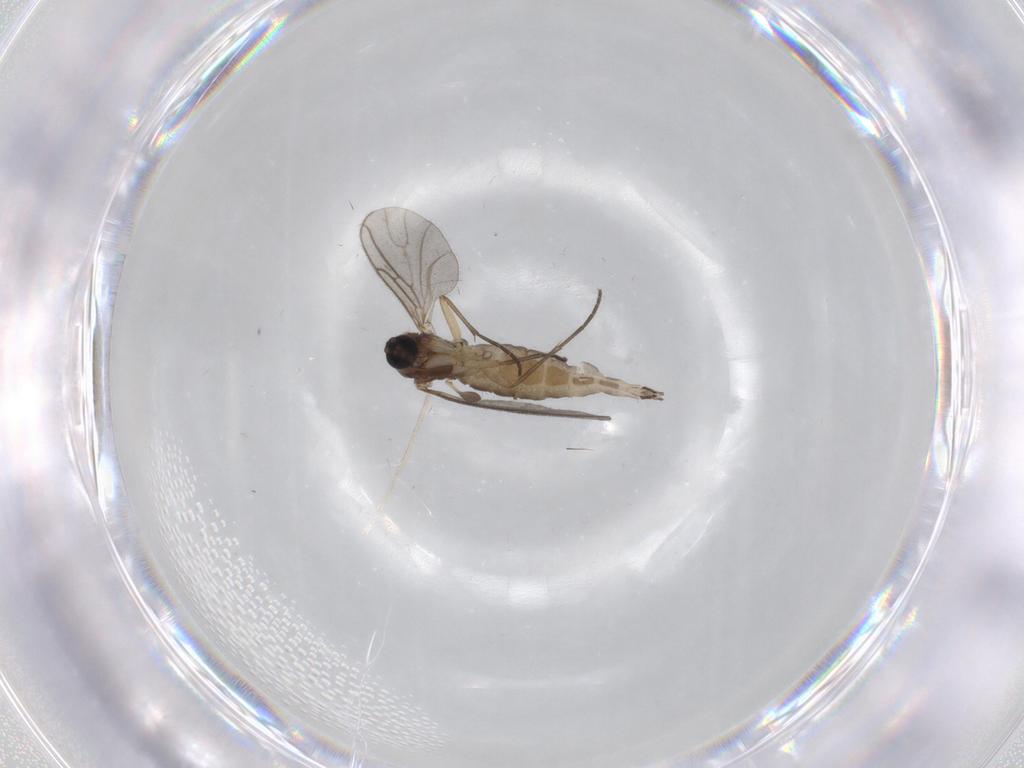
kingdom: Animalia
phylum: Arthropoda
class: Insecta
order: Diptera
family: Sciaridae
